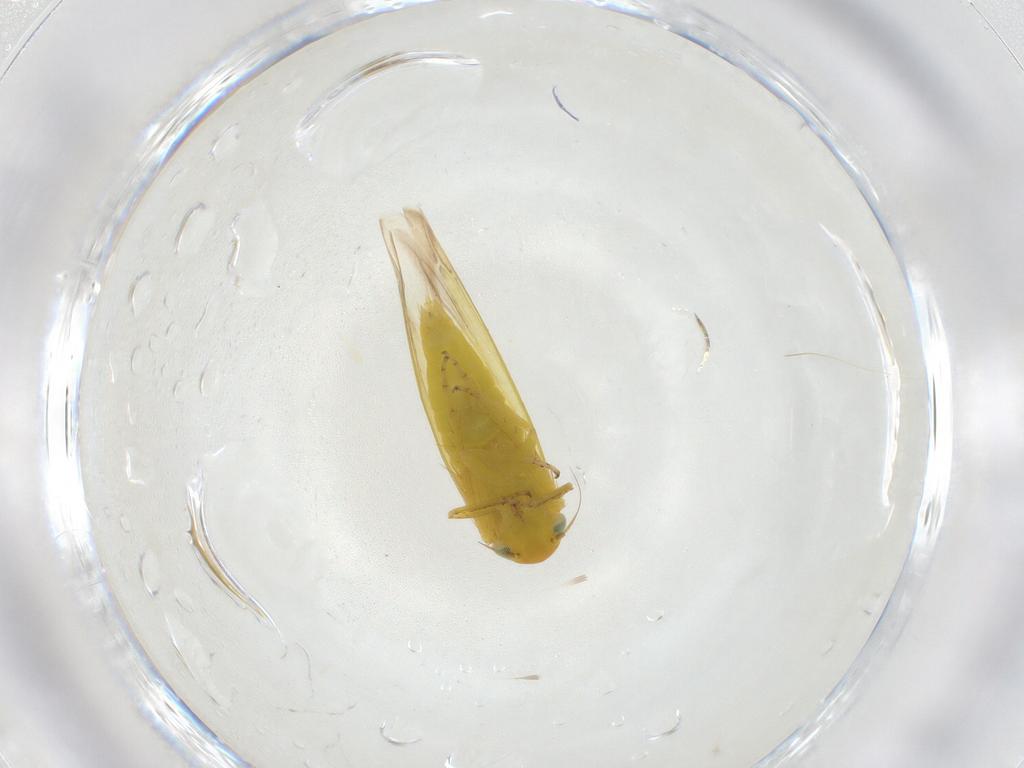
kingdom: Animalia
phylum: Arthropoda
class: Insecta
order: Hemiptera
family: Cicadellidae
